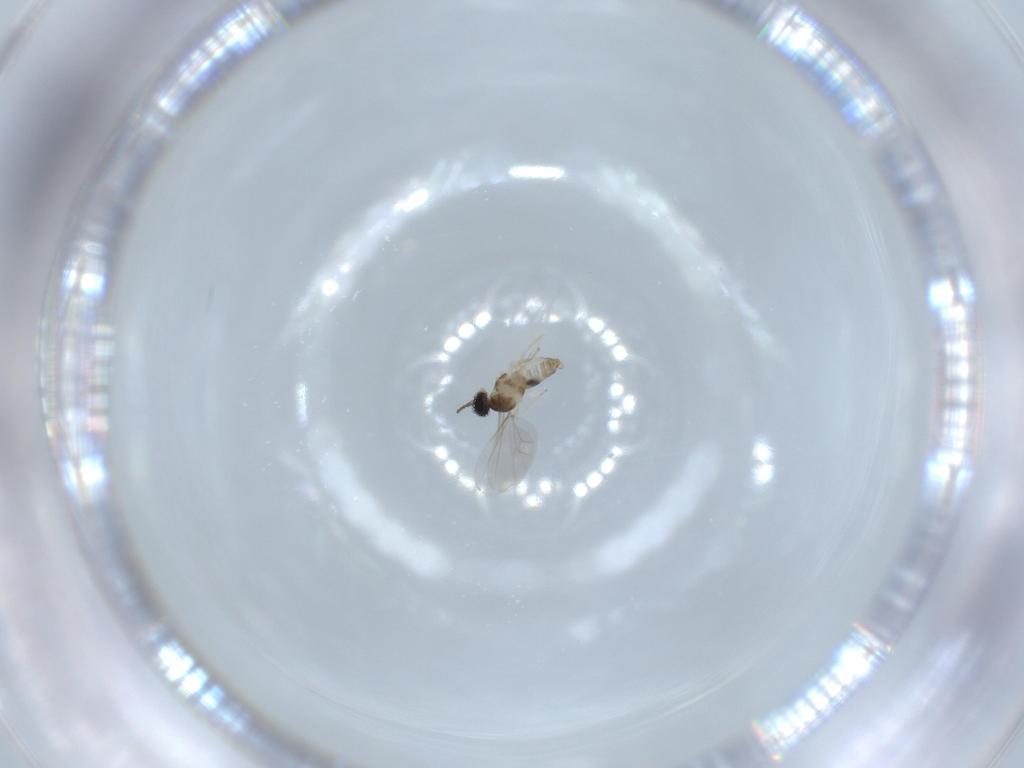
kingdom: Animalia
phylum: Arthropoda
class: Insecta
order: Diptera
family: Cecidomyiidae
